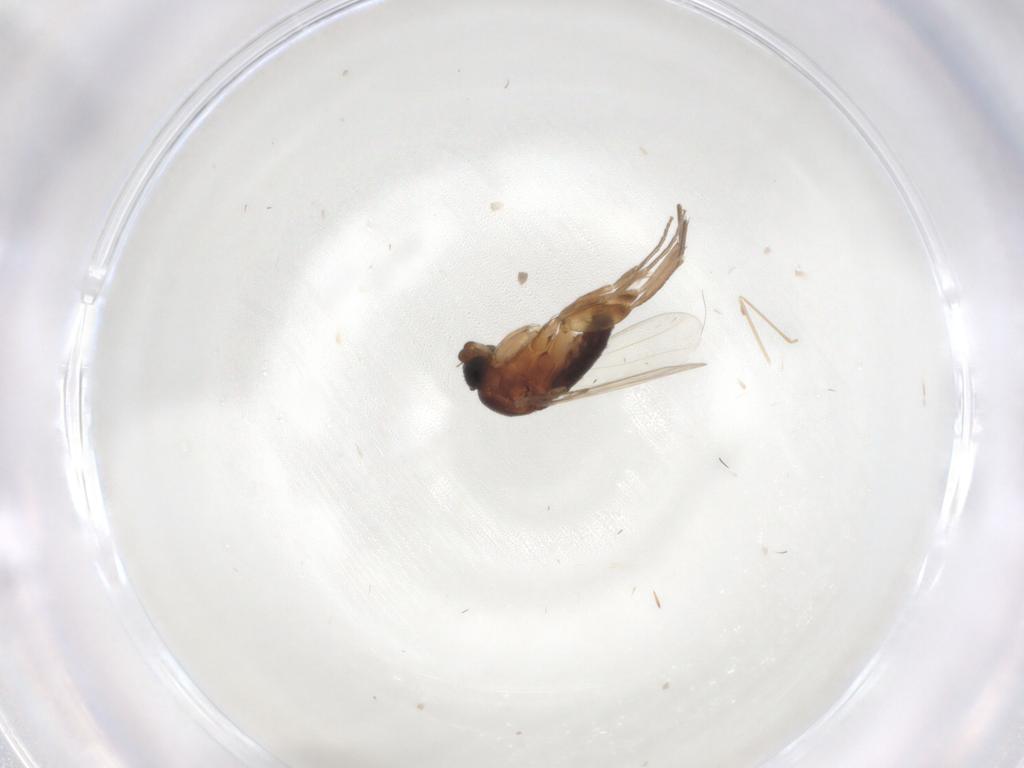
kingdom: Animalia
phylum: Arthropoda
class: Insecta
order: Diptera
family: Phoridae
